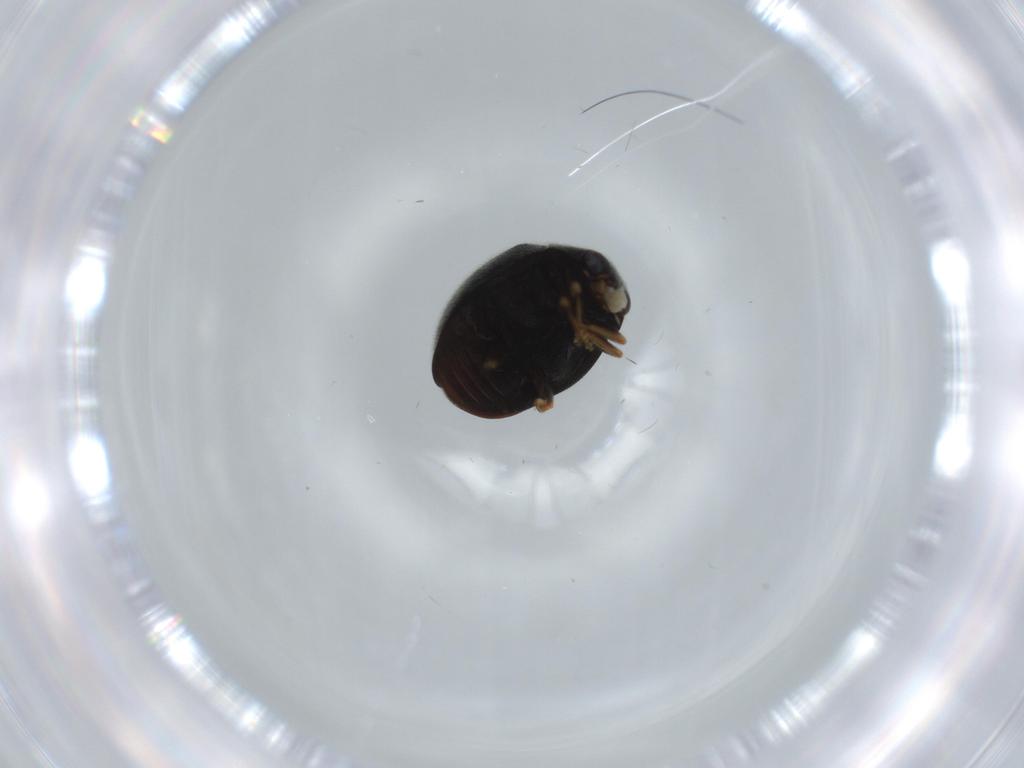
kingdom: Animalia
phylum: Arthropoda
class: Insecta
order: Coleoptera
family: Coccinellidae
